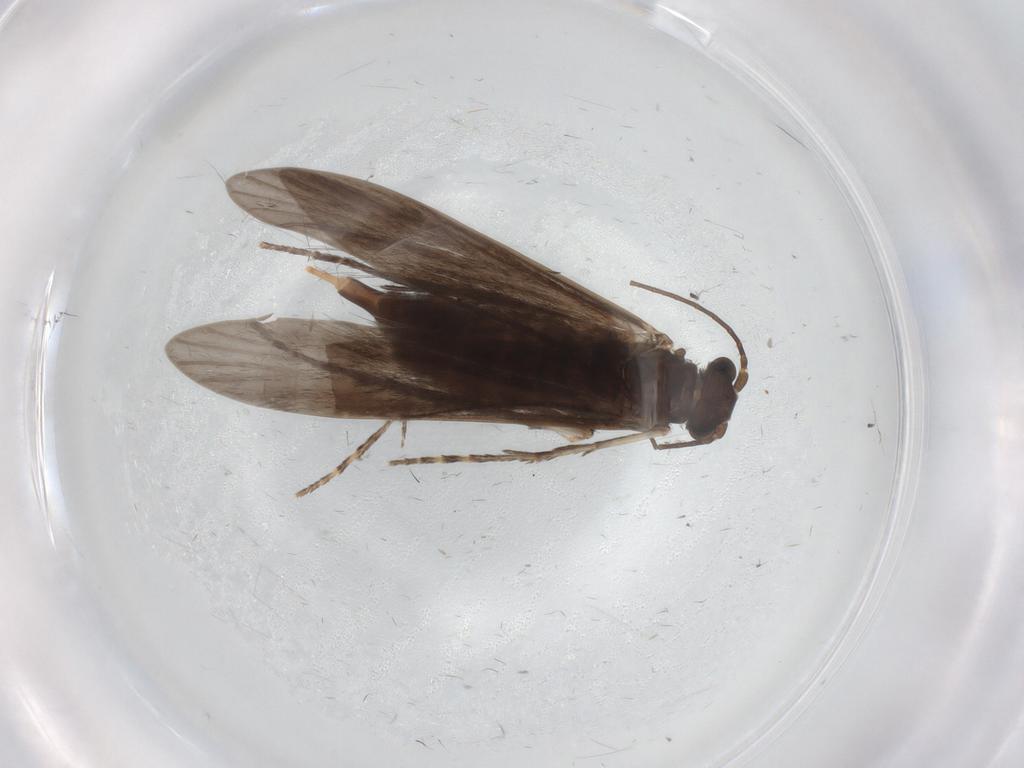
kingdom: Animalia
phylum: Arthropoda
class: Insecta
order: Trichoptera
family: Xiphocentronidae
